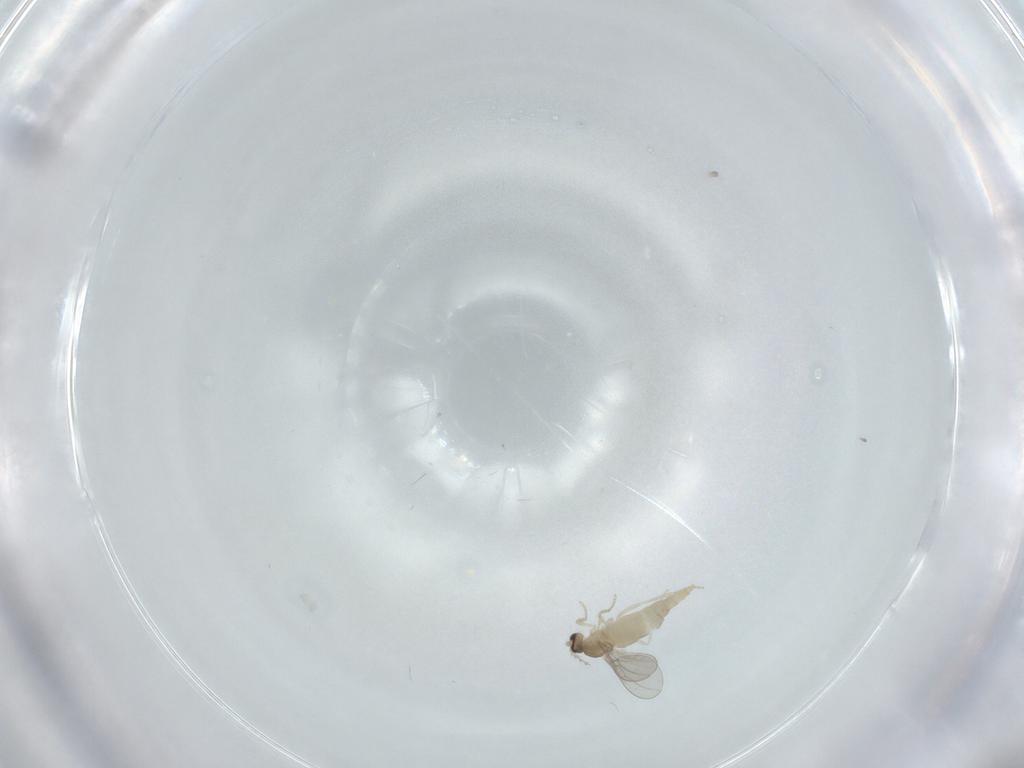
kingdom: Animalia
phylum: Arthropoda
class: Insecta
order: Diptera
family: Cecidomyiidae
